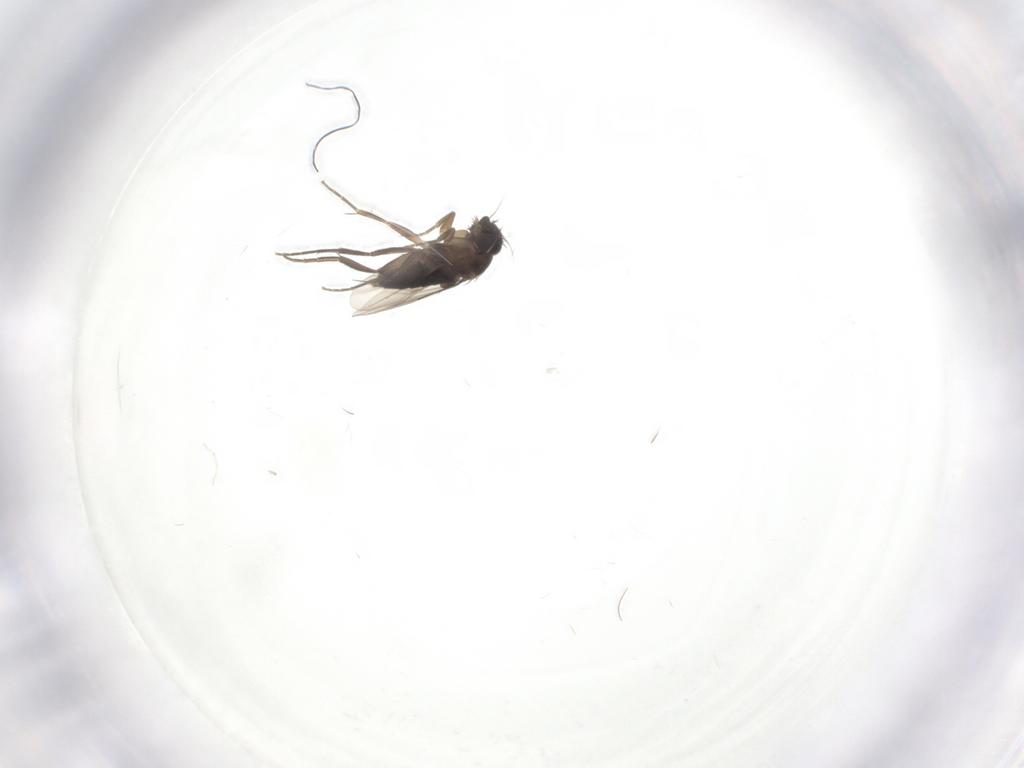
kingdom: Animalia
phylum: Arthropoda
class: Insecta
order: Diptera
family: Phoridae
